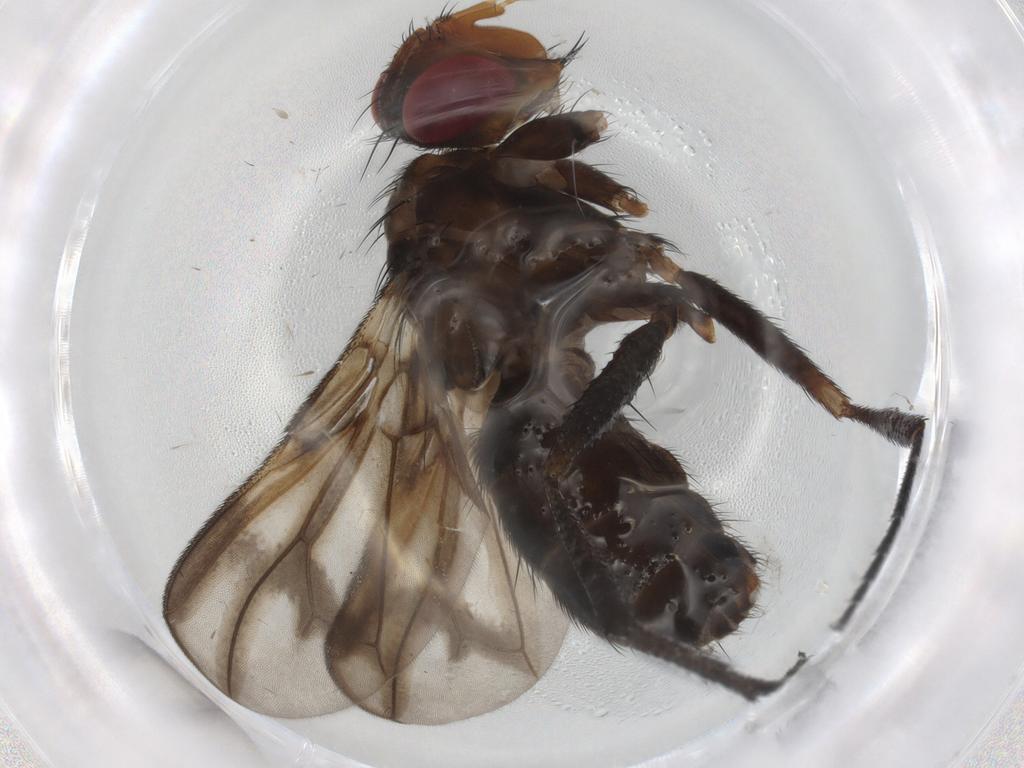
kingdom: Animalia
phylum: Arthropoda
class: Insecta
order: Diptera
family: Calliphoridae
